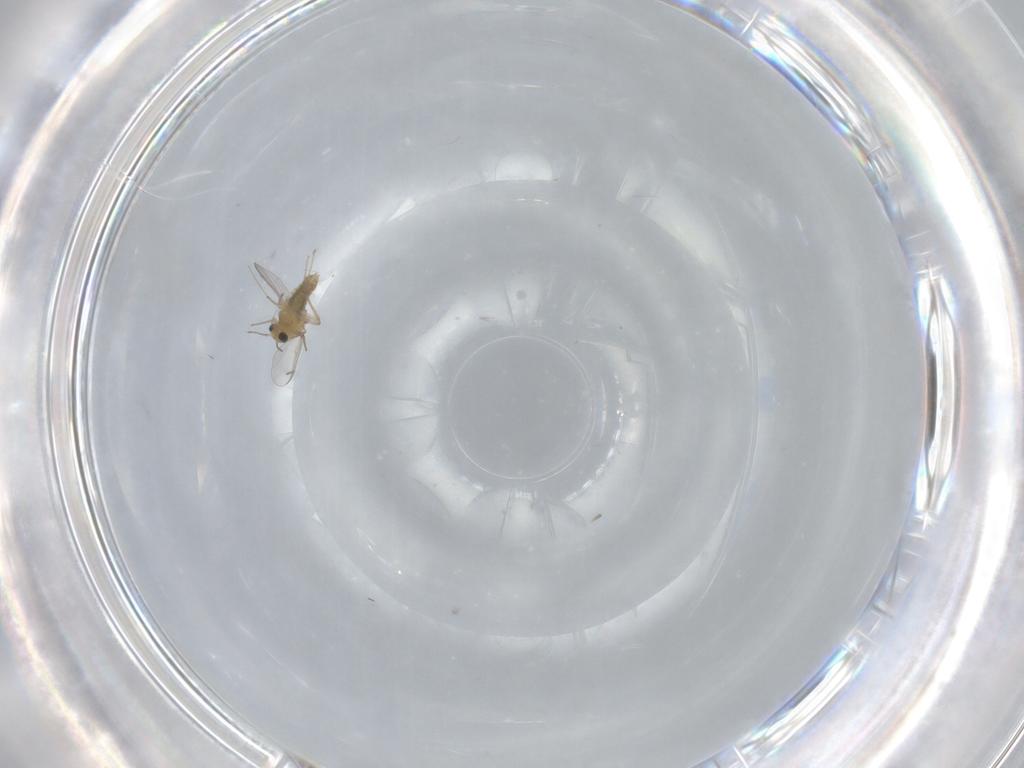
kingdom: Animalia
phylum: Arthropoda
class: Insecta
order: Diptera
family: Chironomidae
